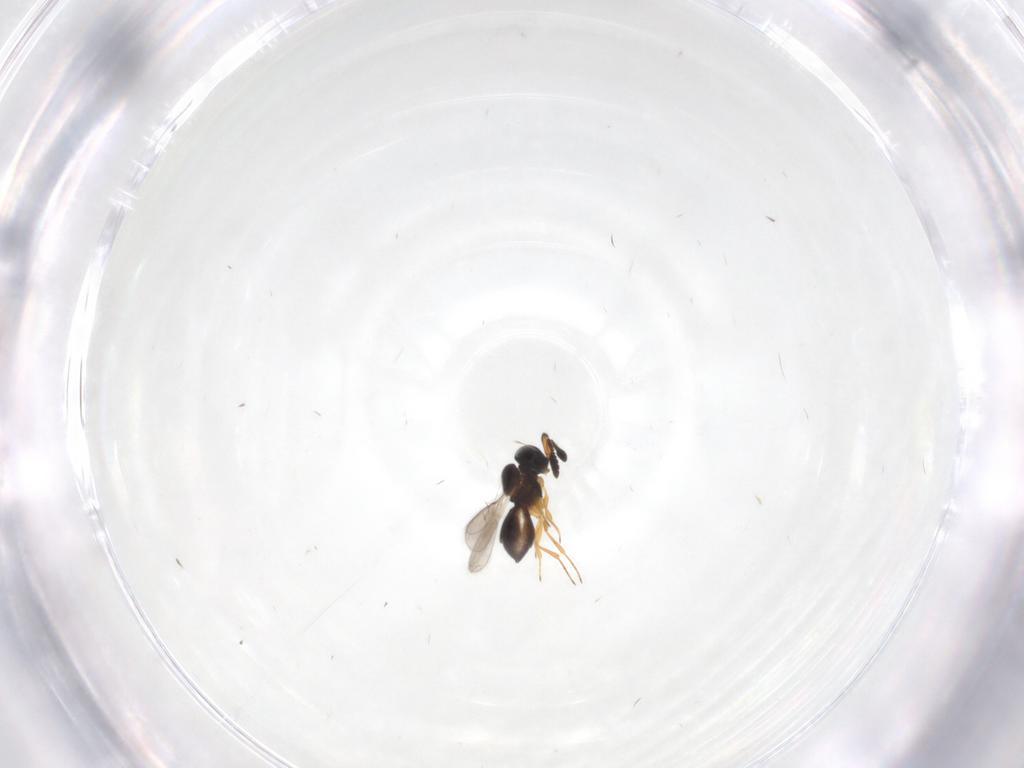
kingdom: Animalia
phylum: Arthropoda
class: Insecta
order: Hymenoptera
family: Scelionidae
